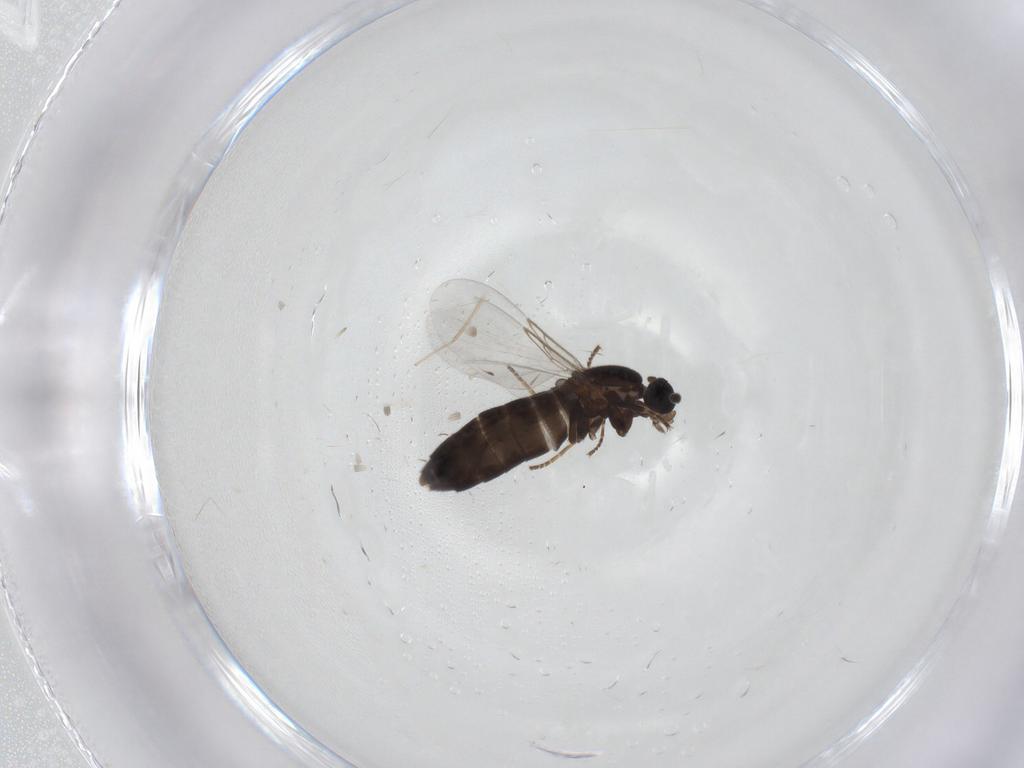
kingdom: Animalia
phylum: Arthropoda
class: Insecta
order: Diptera
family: Scatopsidae
